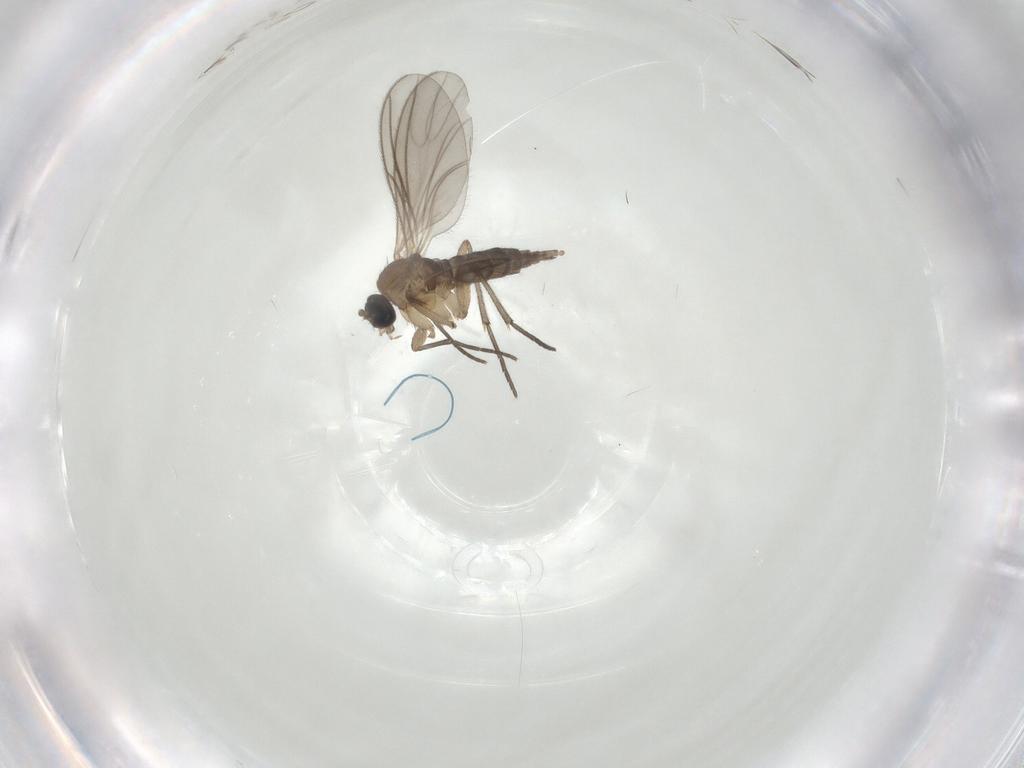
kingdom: Animalia
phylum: Arthropoda
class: Insecta
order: Diptera
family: Sciaridae
